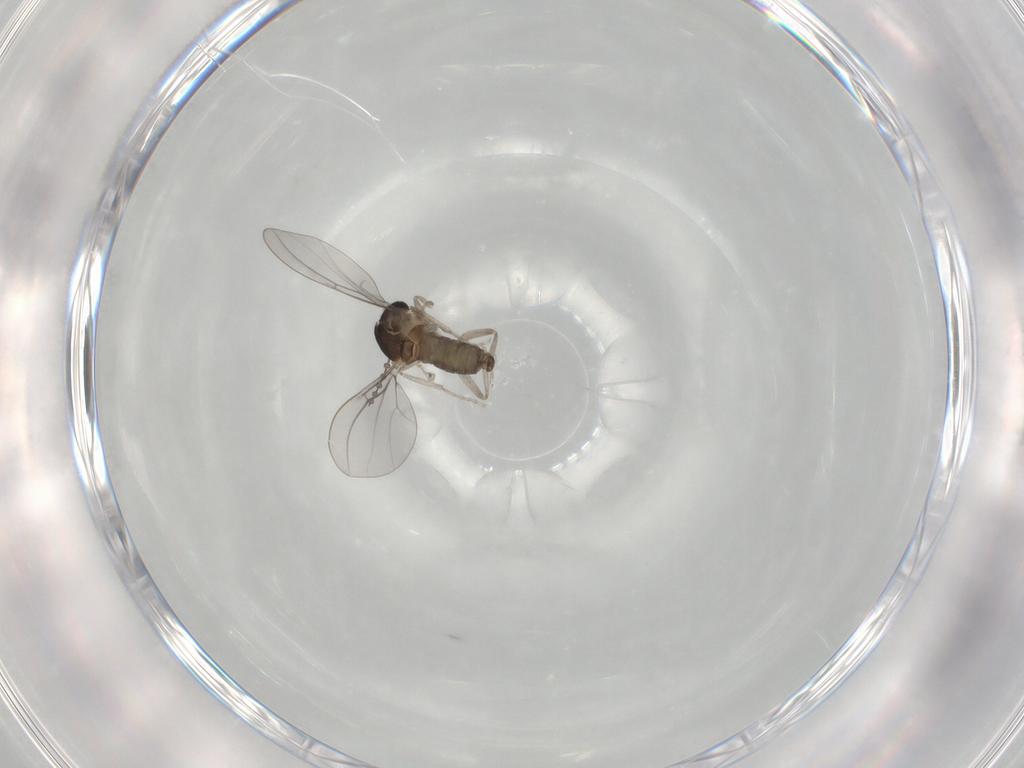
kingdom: Animalia
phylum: Arthropoda
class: Insecta
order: Diptera
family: Cecidomyiidae
